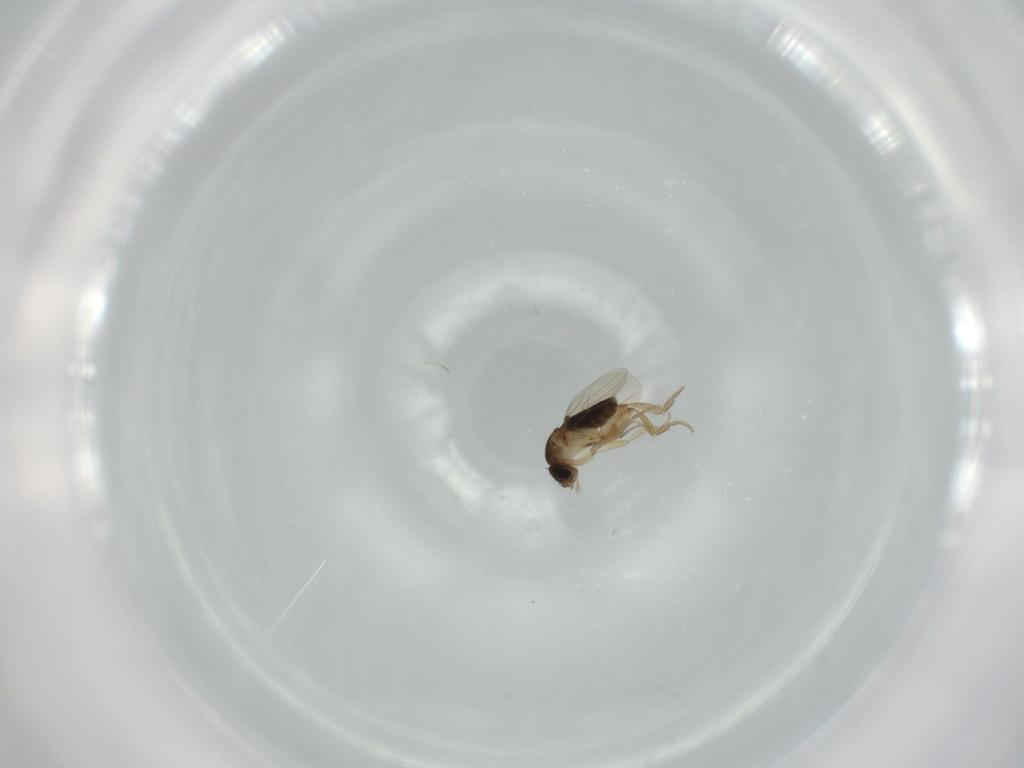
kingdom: Animalia
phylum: Arthropoda
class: Insecta
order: Diptera
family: Phoridae
